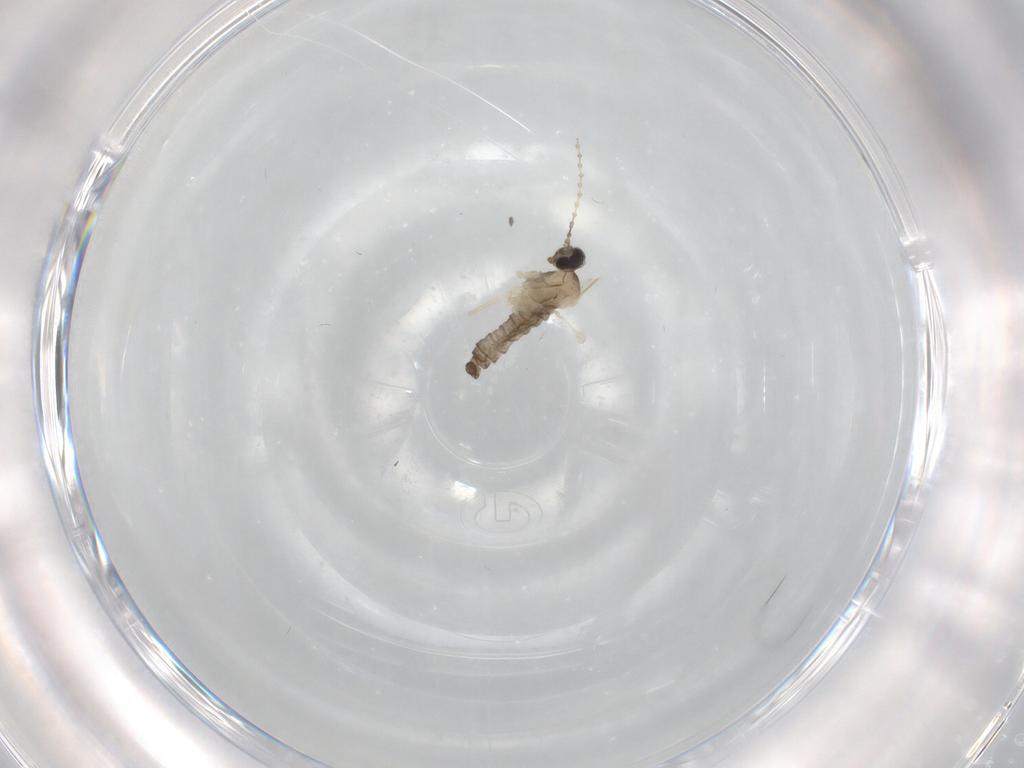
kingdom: Animalia
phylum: Arthropoda
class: Insecta
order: Diptera
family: Cecidomyiidae
